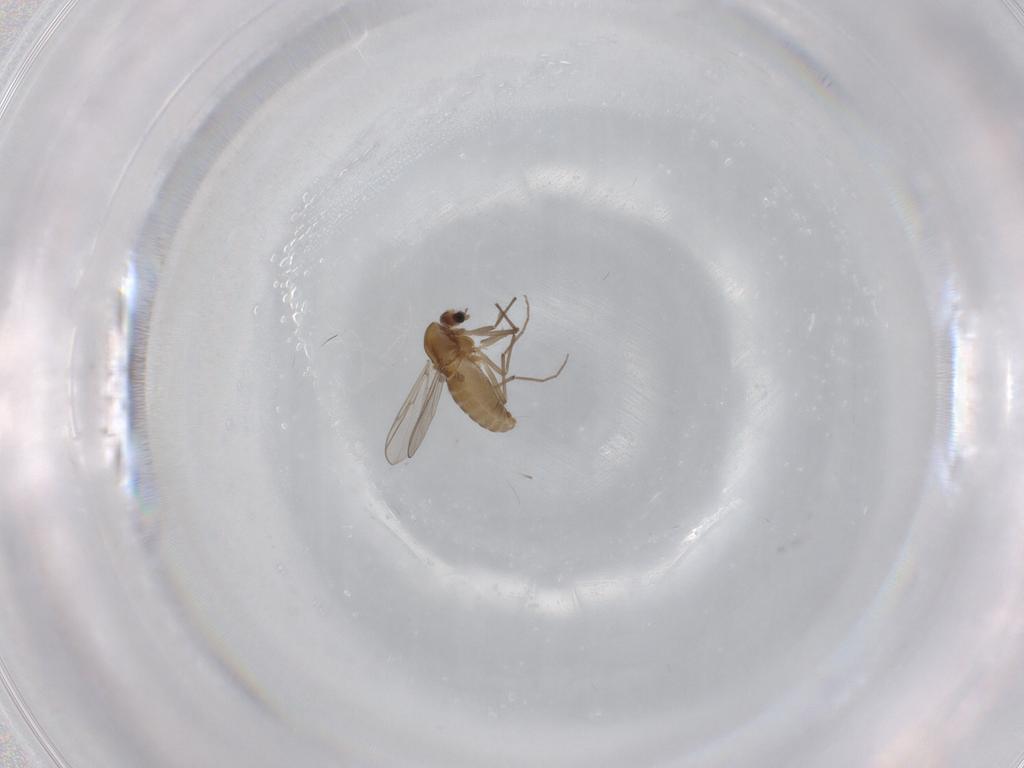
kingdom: Animalia
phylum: Arthropoda
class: Insecta
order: Diptera
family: Chironomidae
